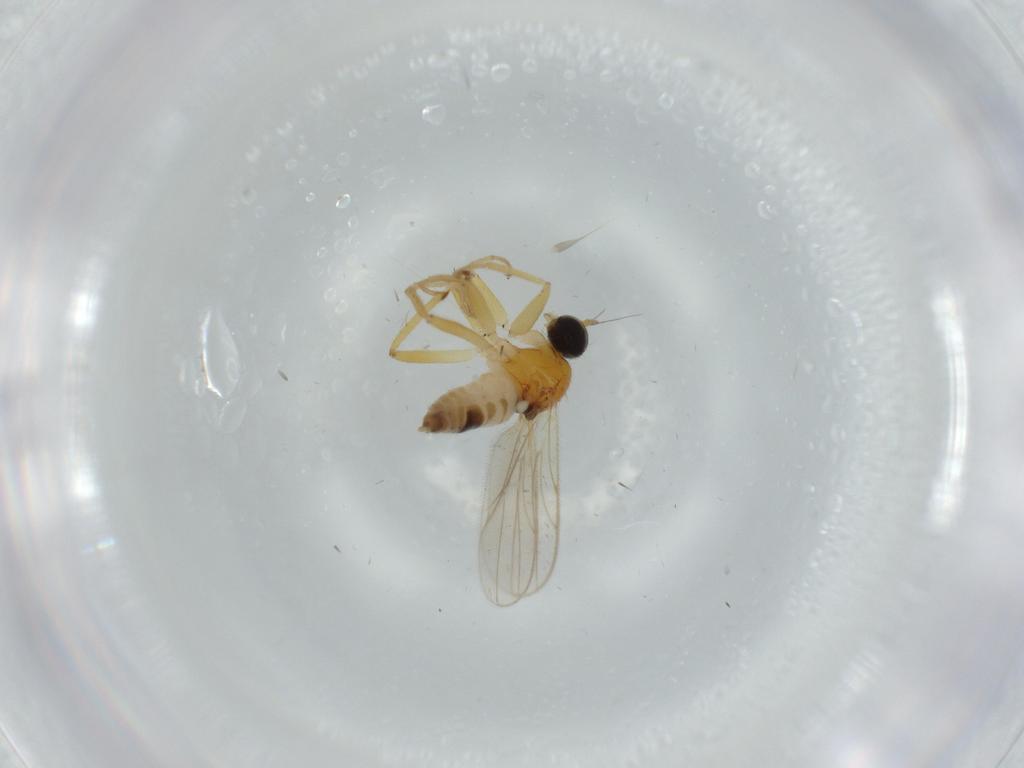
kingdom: Animalia
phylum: Arthropoda
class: Insecta
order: Diptera
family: Hybotidae
